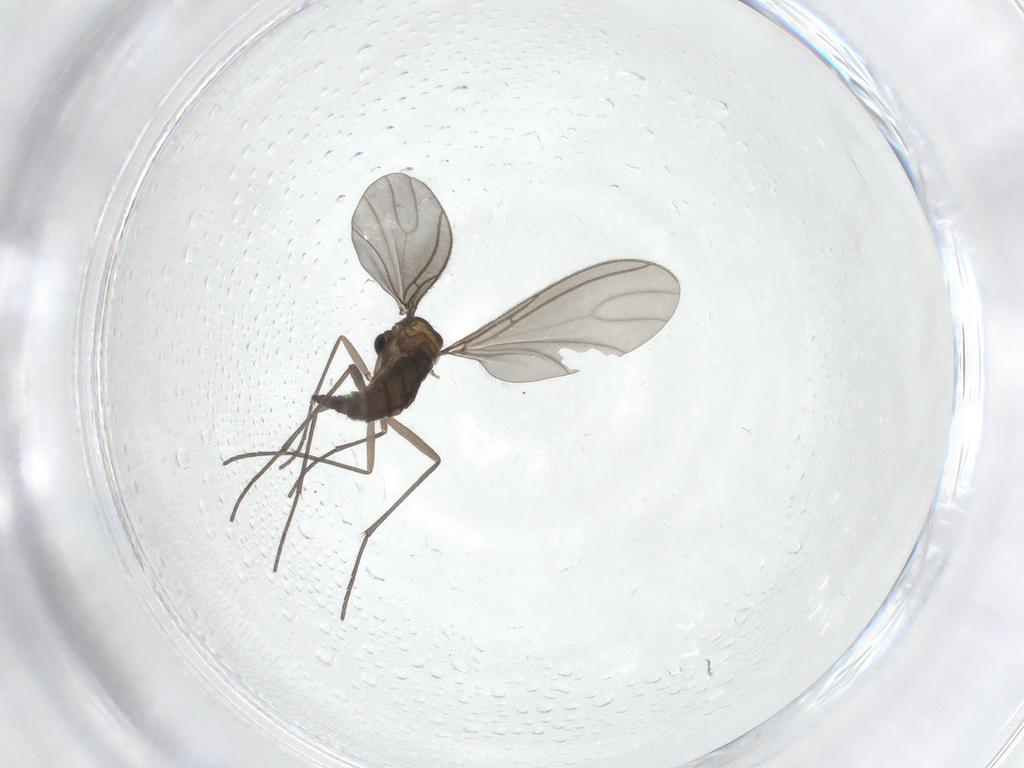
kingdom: Animalia
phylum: Arthropoda
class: Insecta
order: Diptera
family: Sciaridae
